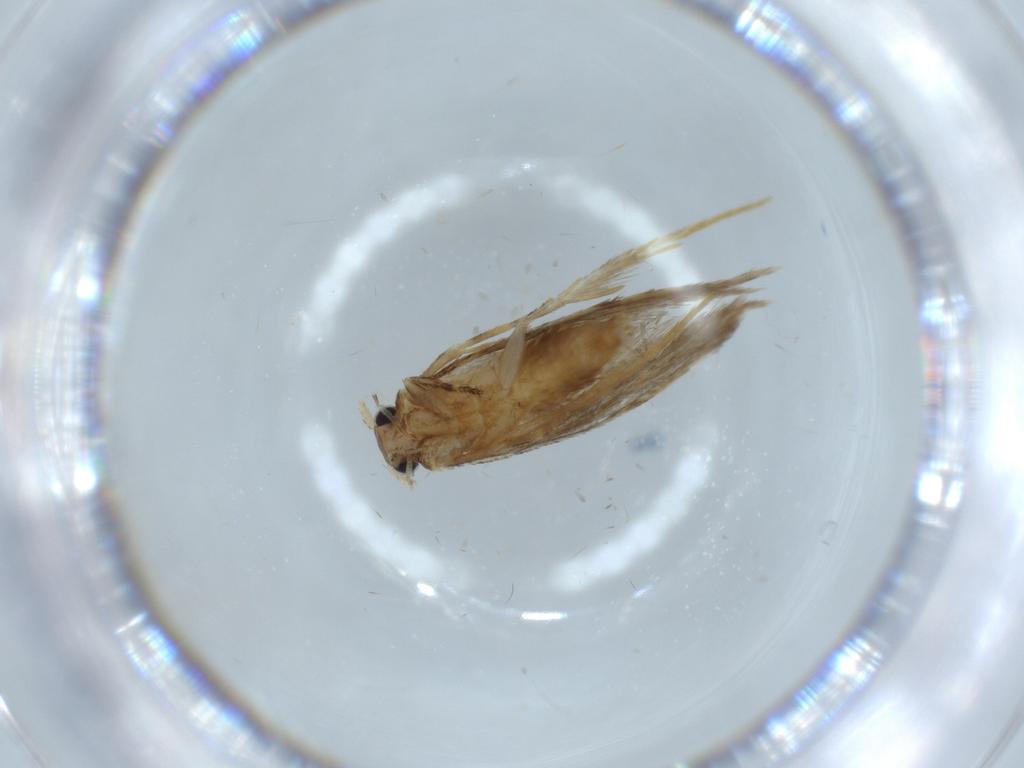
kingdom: Animalia
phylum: Arthropoda
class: Insecta
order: Lepidoptera
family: Tineidae
